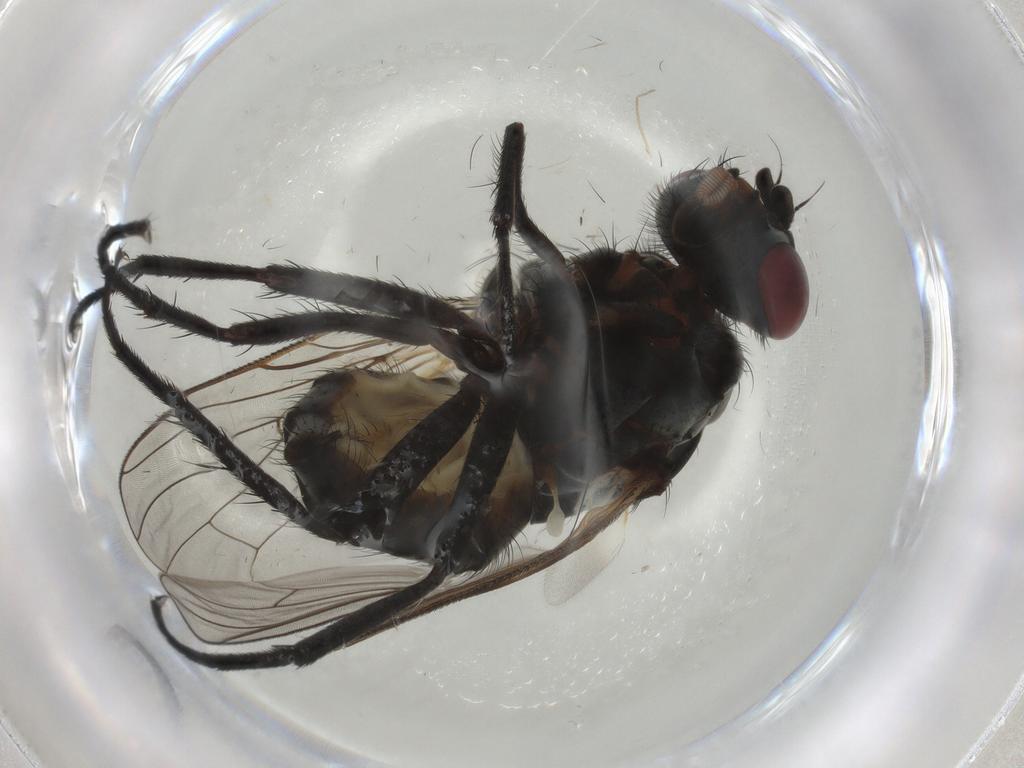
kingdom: Animalia
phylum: Arthropoda
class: Insecta
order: Diptera
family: Anthomyiidae
